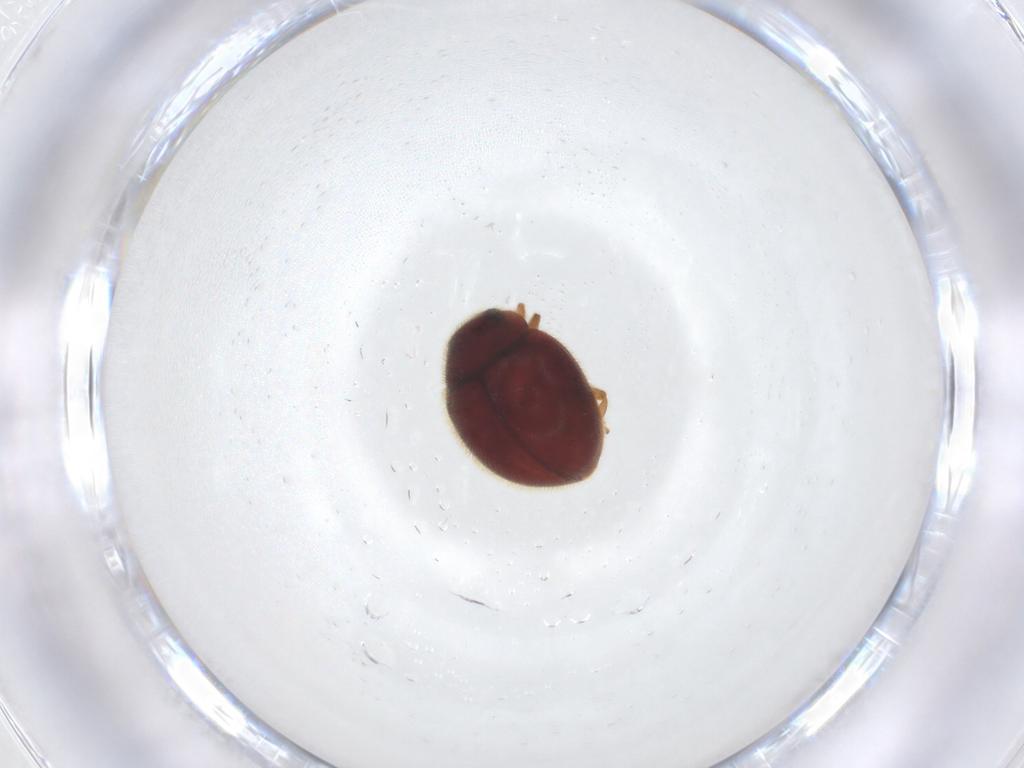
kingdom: Animalia
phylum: Arthropoda
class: Insecta
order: Coleoptera
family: Coccinellidae
